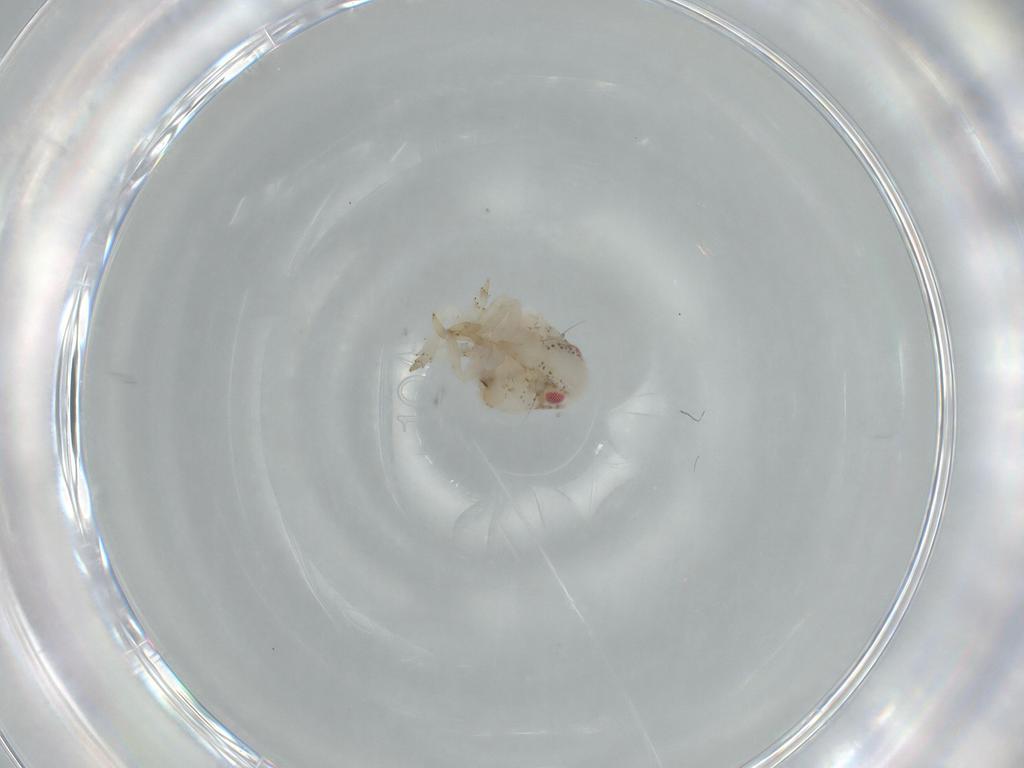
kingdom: Animalia
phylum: Arthropoda
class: Insecta
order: Hemiptera
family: Acanaloniidae
